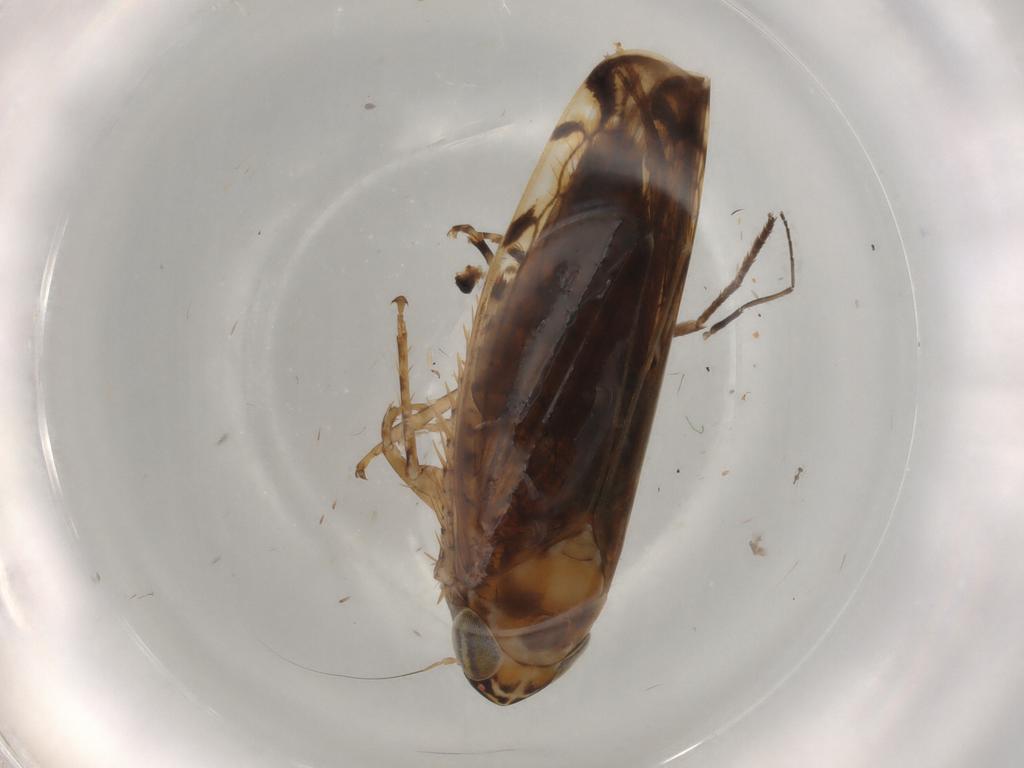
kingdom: Animalia
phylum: Arthropoda
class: Insecta
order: Hemiptera
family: Cicadellidae
